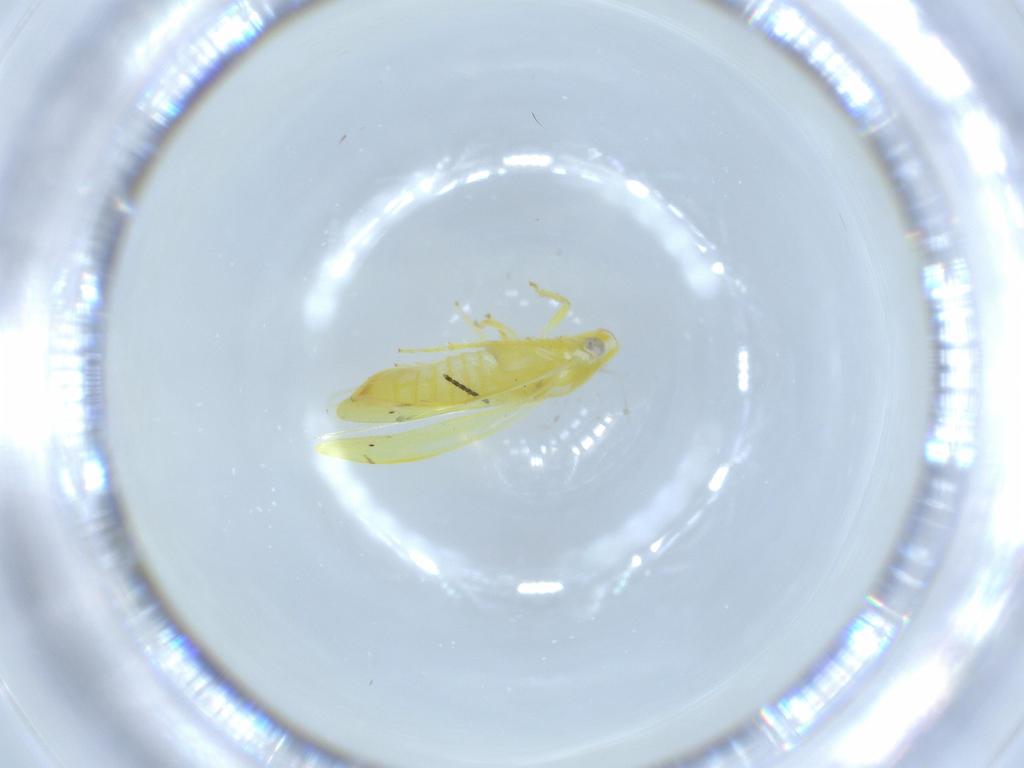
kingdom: Animalia
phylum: Arthropoda
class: Insecta
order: Hemiptera
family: Cicadellidae
